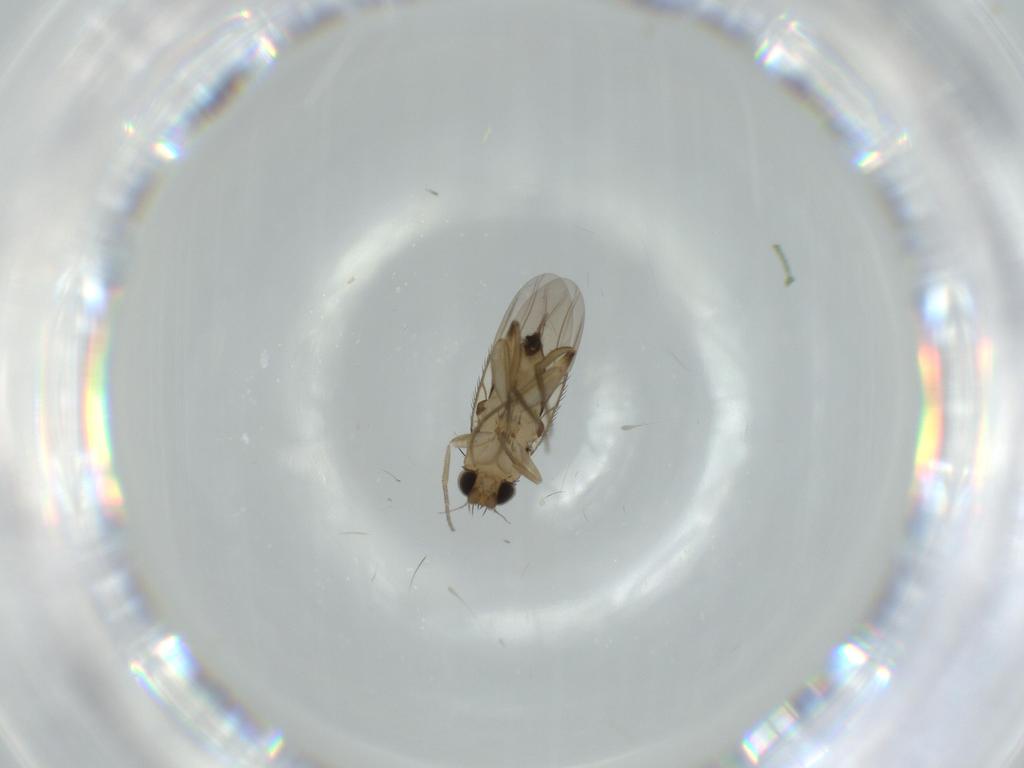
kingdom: Animalia
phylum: Arthropoda
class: Insecta
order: Diptera
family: Phoridae
